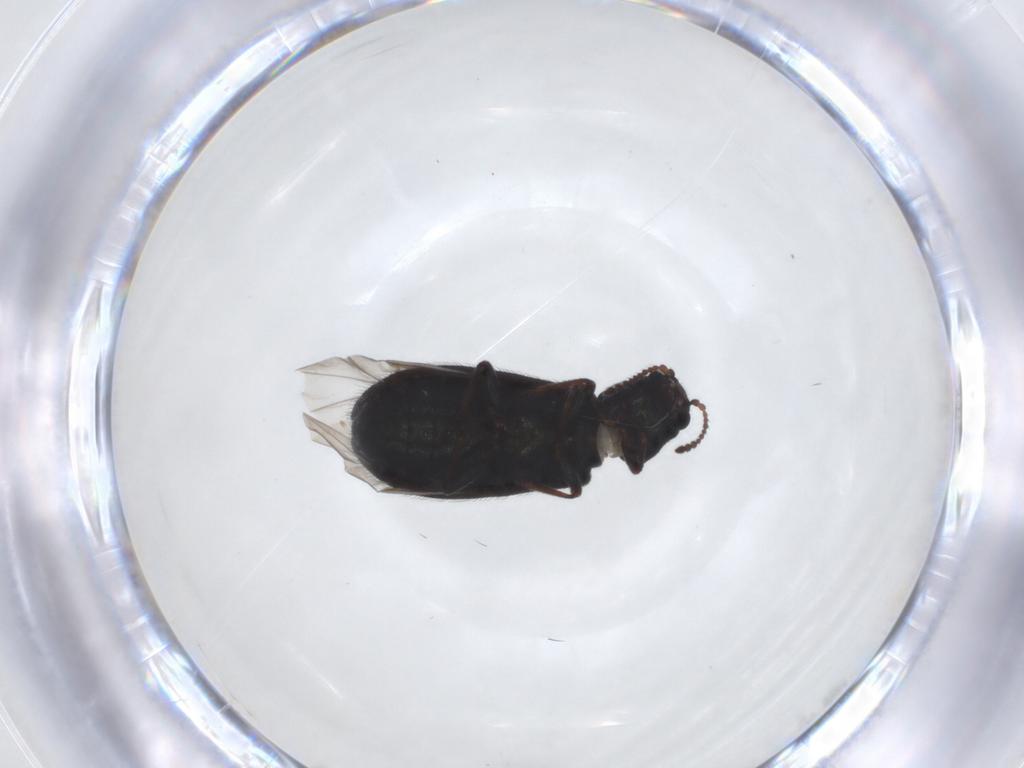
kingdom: Animalia
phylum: Arthropoda
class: Insecta
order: Coleoptera
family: Melyridae
